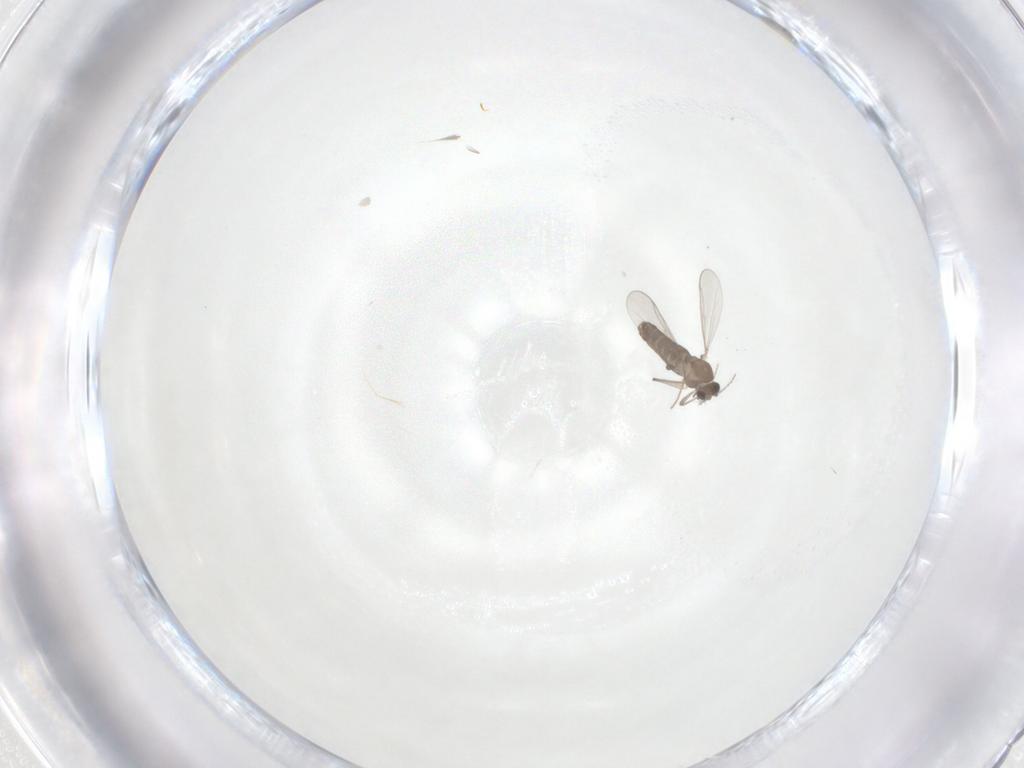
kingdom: Animalia
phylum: Arthropoda
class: Insecta
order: Diptera
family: Chironomidae
